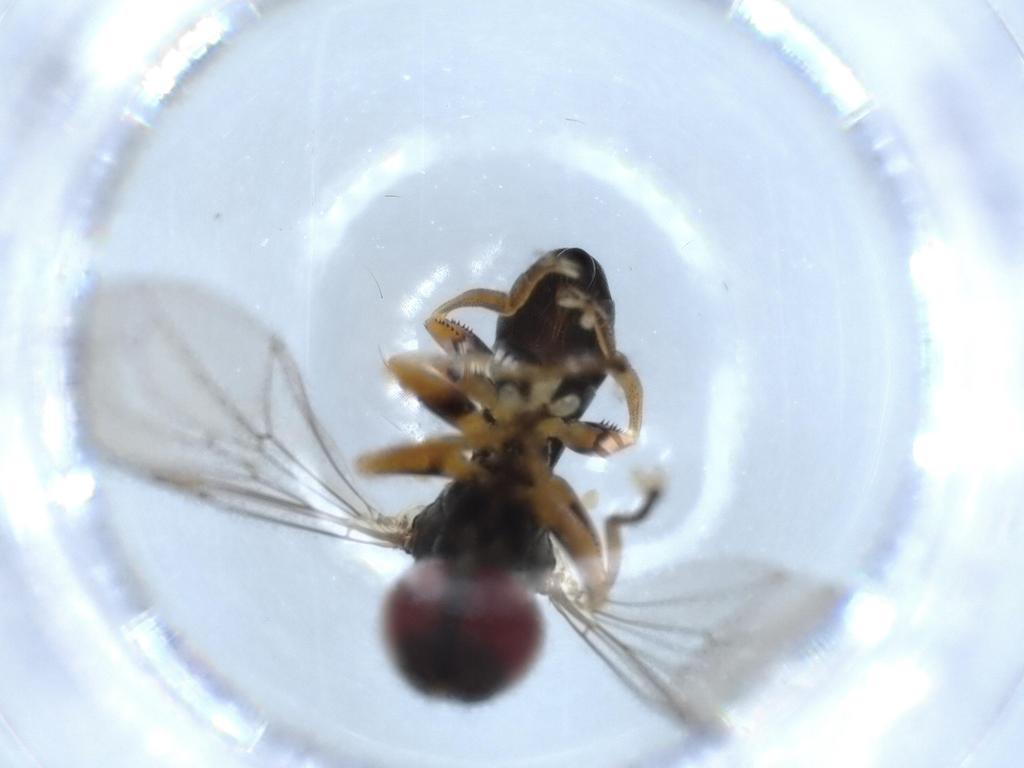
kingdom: Animalia
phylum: Arthropoda
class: Insecta
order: Diptera
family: Pipunculidae
